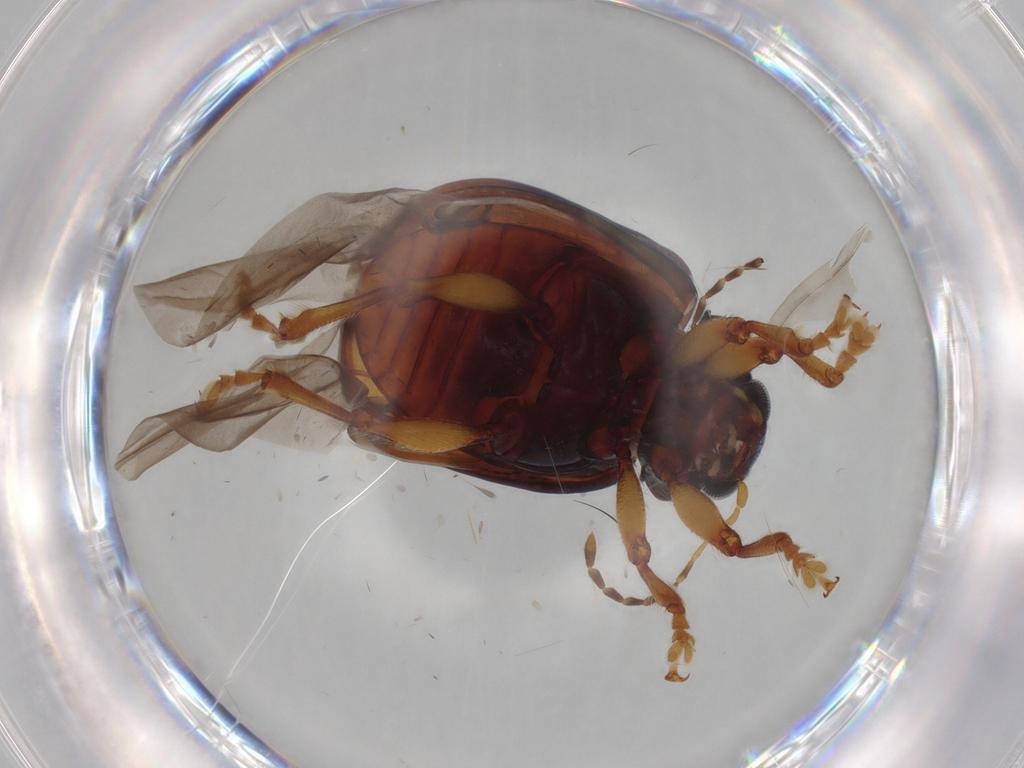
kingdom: Animalia
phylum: Arthropoda
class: Insecta
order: Coleoptera
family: Chrysomelidae
